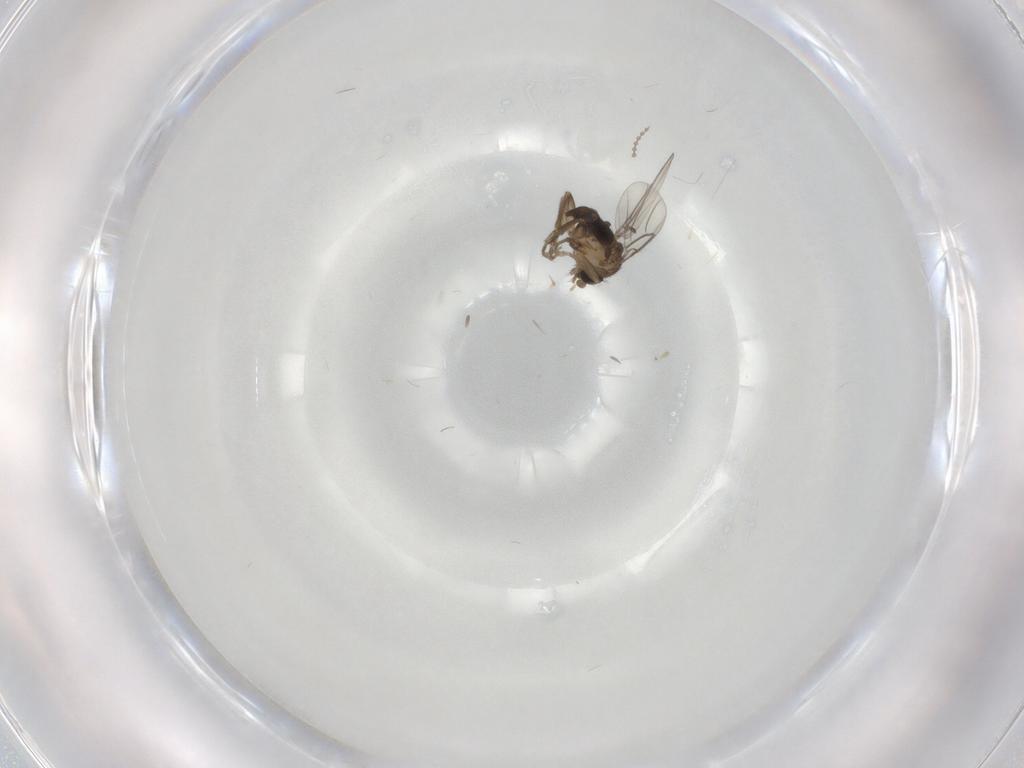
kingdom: Animalia
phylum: Arthropoda
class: Insecta
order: Diptera
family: Phoridae
